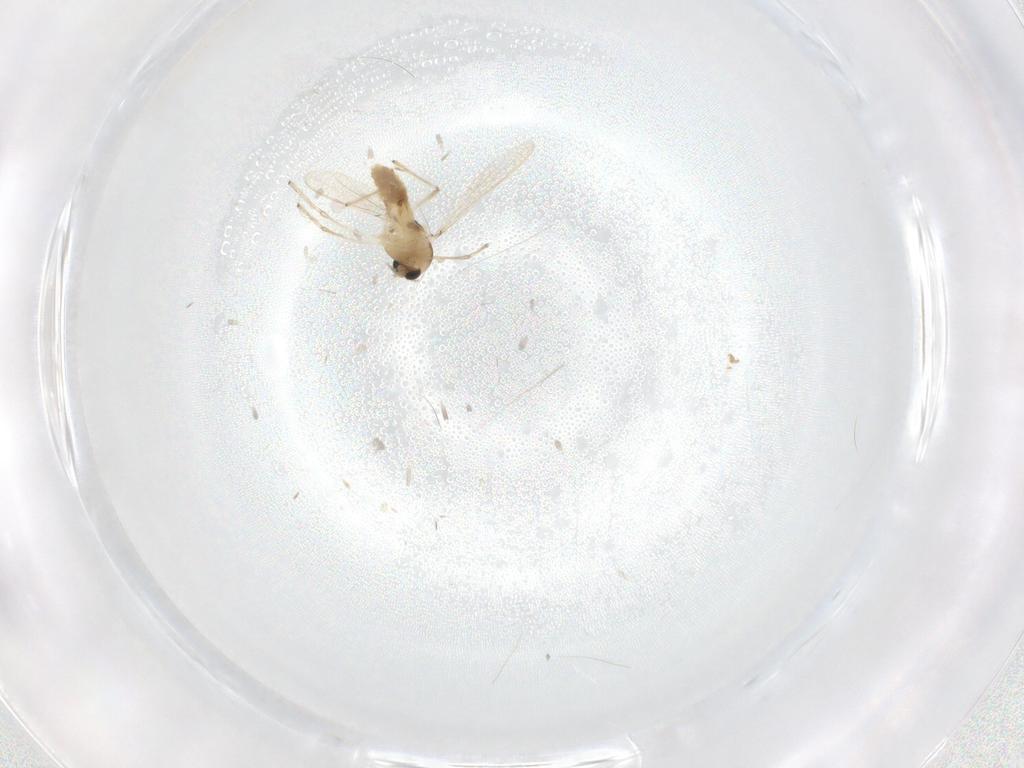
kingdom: Animalia
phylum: Arthropoda
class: Insecta
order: Diptera
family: Chironomidae
